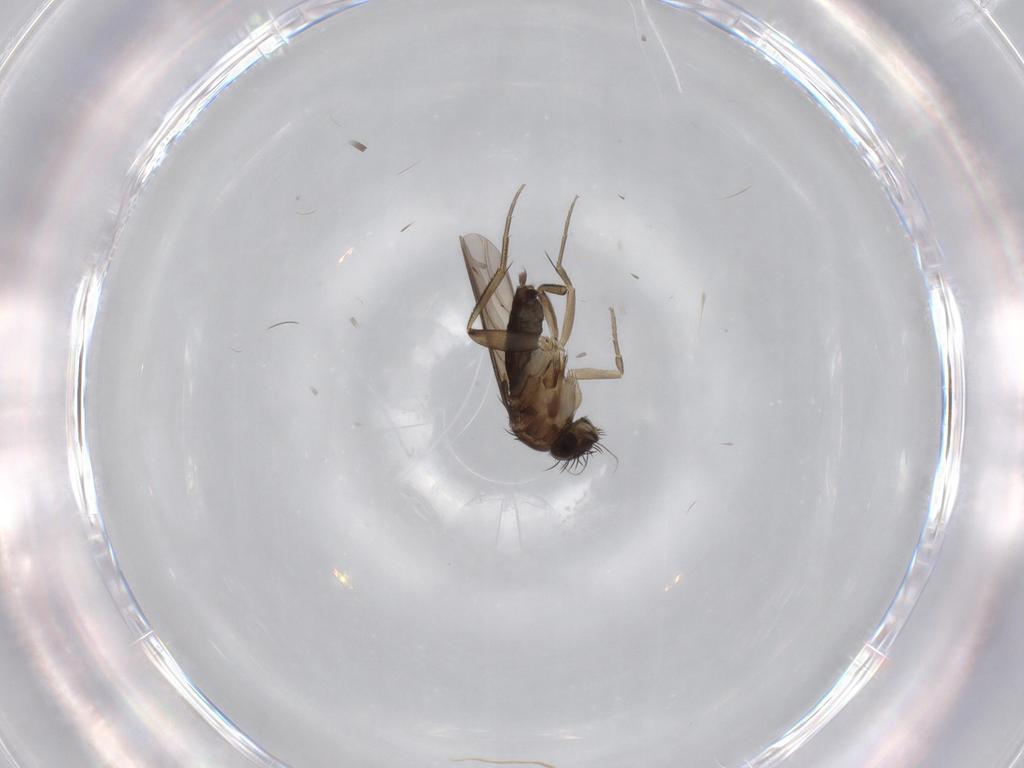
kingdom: Animalia
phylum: Arthropoda
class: Insecta
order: Diptera
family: Phoridae
